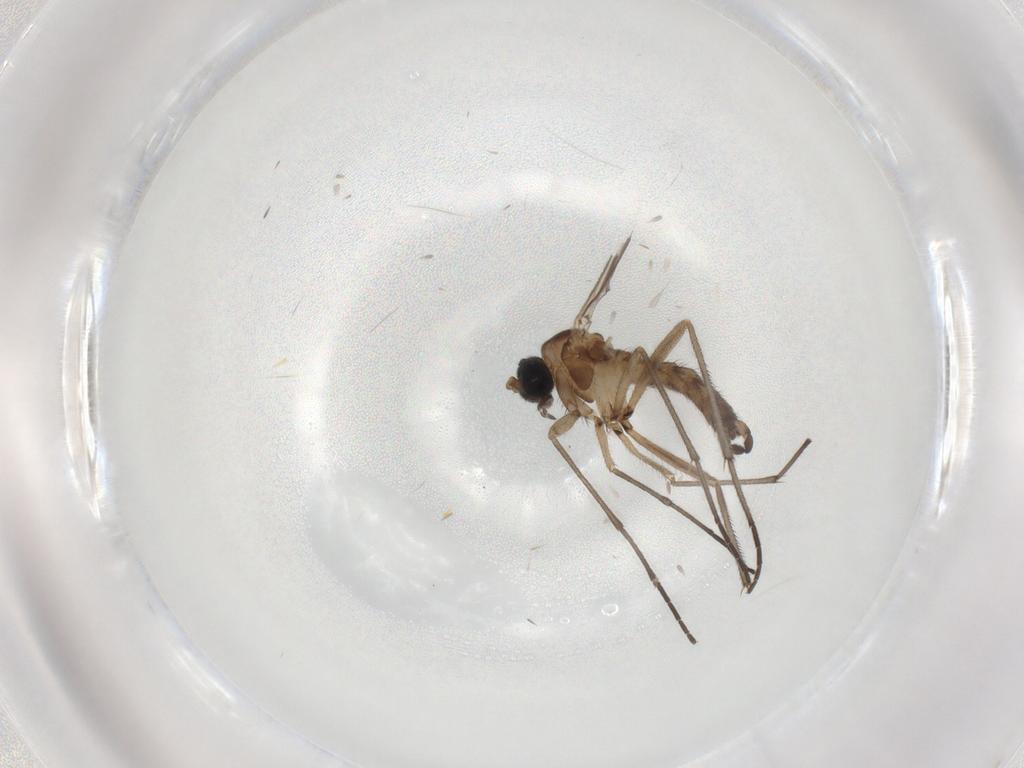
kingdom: Animalia
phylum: Arthropoda
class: Insecta
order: Diptera
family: Sciaridae
